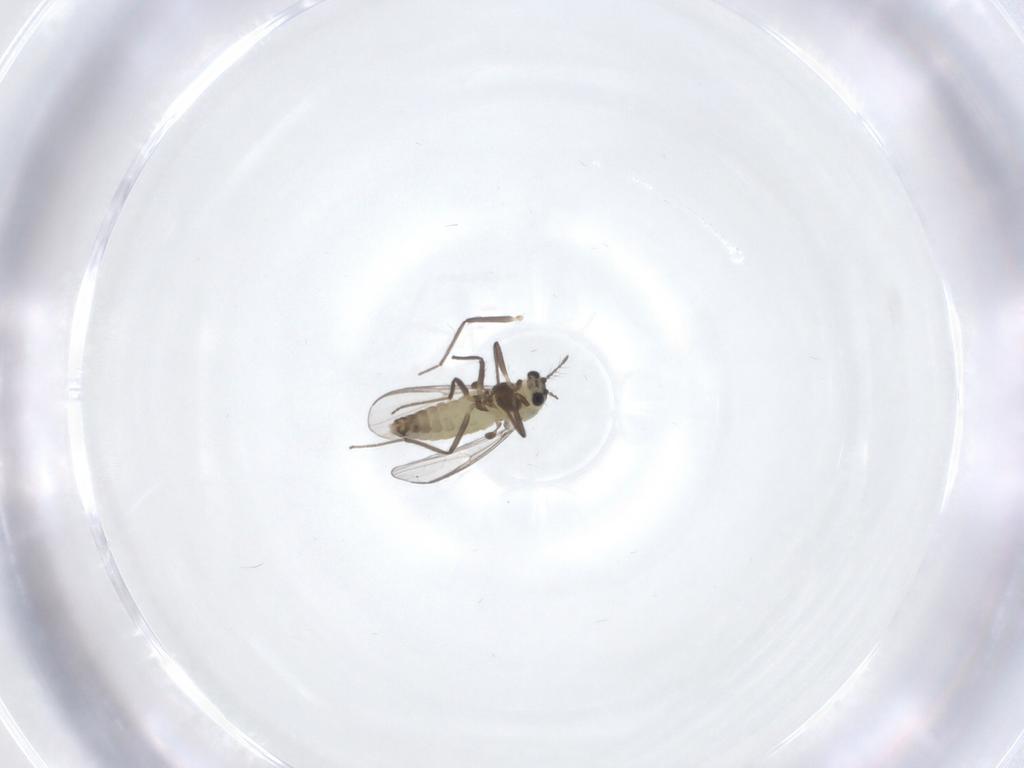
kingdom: Animalia
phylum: Arthropoda
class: Insecta
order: Diptera
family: Chironomidae
